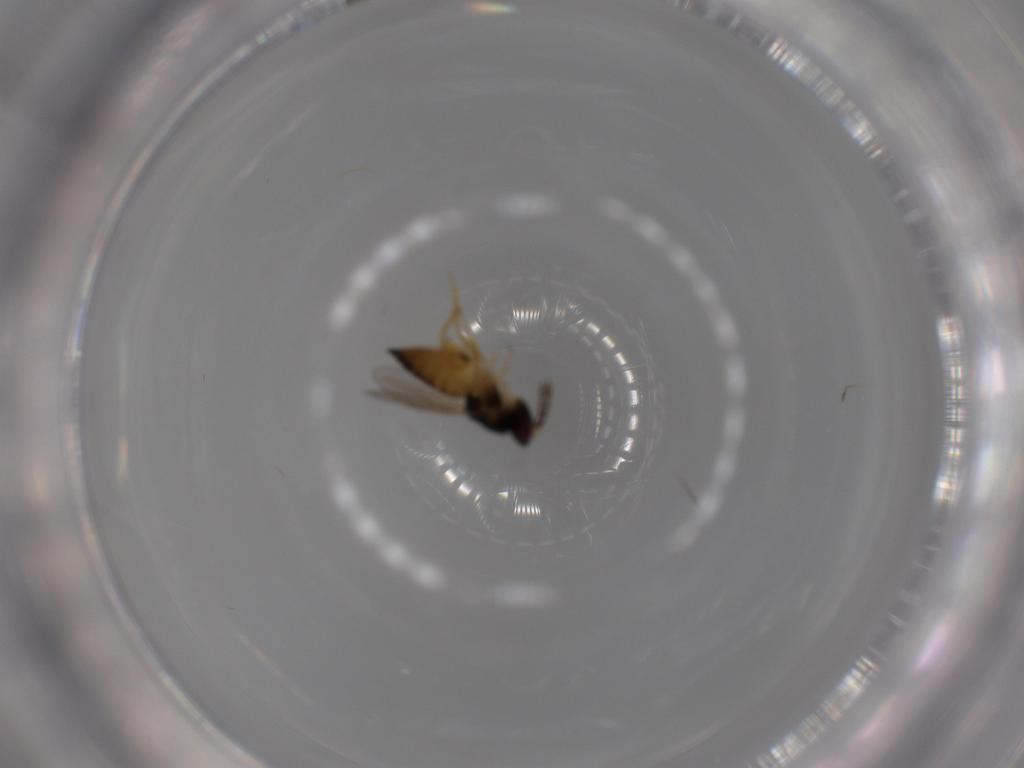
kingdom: Animalia
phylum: Arthropoda
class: Insecta
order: Hymenoptera
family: Eulophidae
